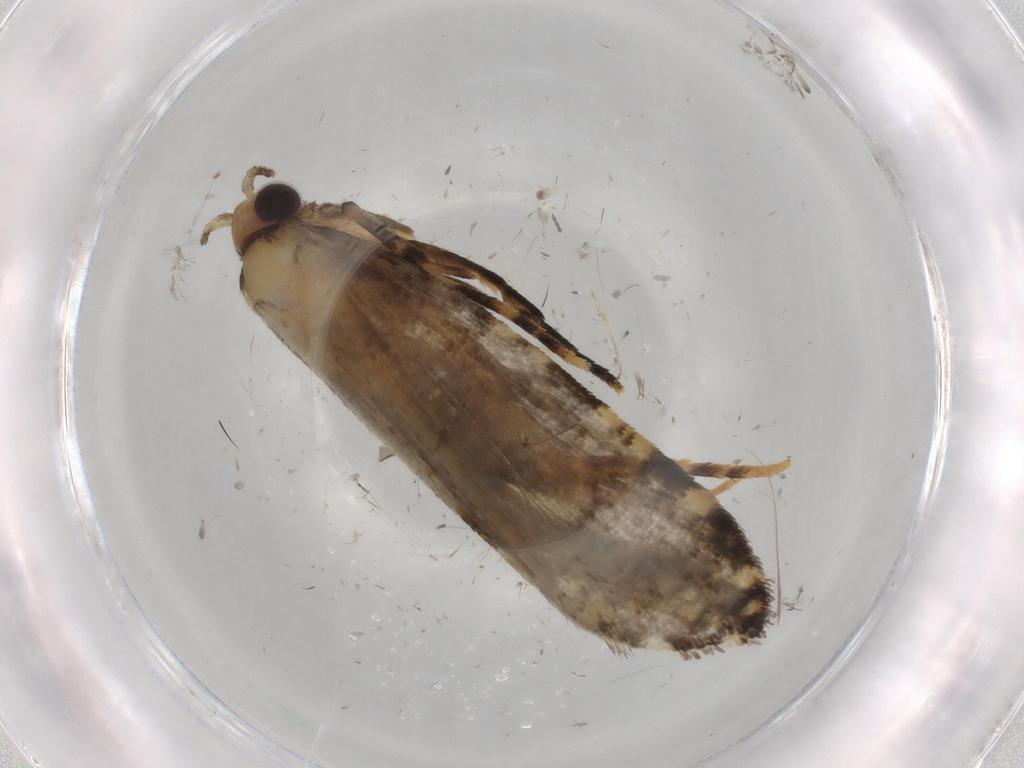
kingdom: Animalia
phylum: Arthropoda
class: Insecta
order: Lepidoptera
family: Tineidae
